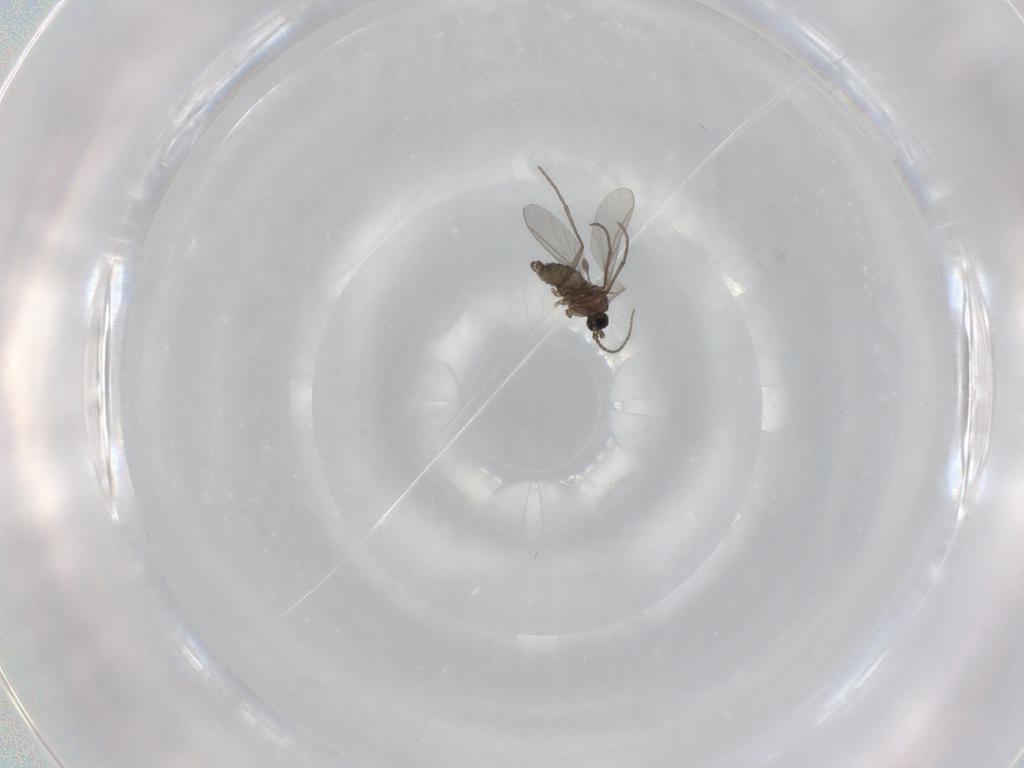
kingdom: Animalia
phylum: Arthropoda
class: Insecta
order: Diptera
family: Sciaridae
